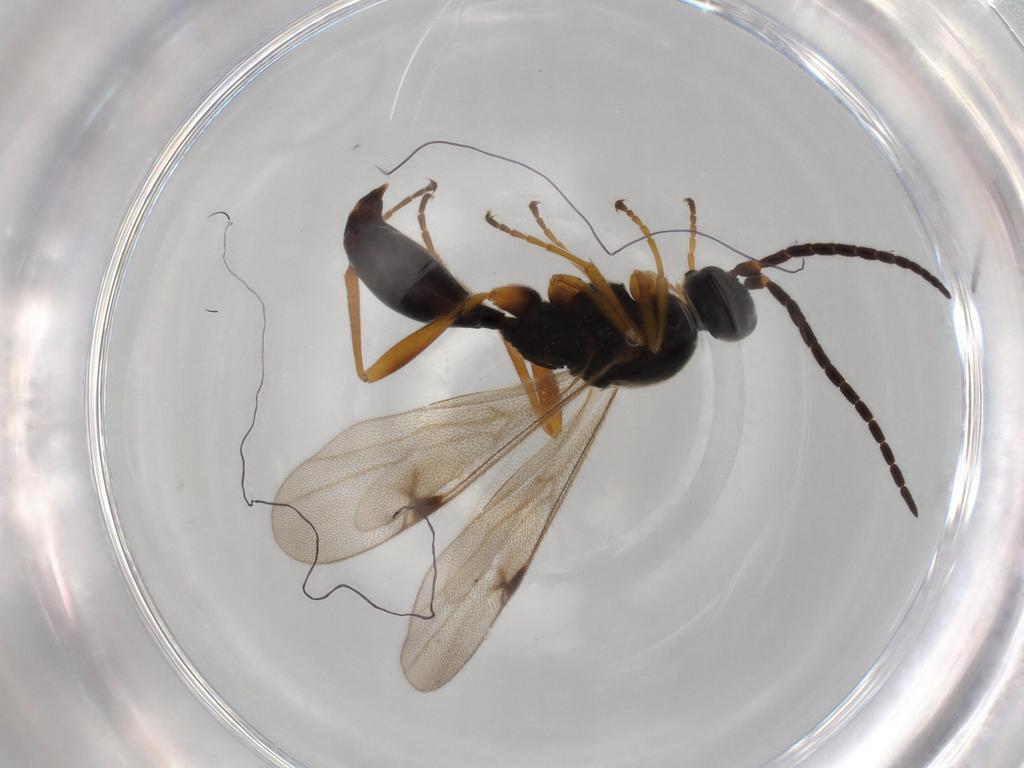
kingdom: Animalia
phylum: Arthropoda
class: Insecta
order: Hymenoptera
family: Proctotrupidae
